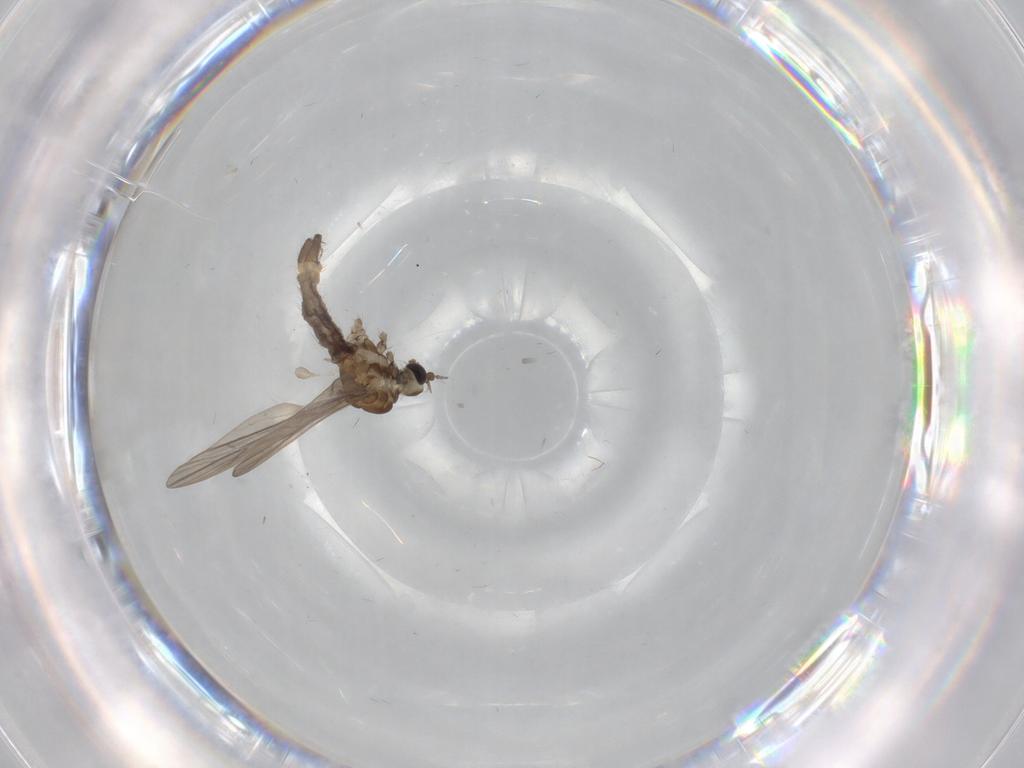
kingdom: Animalia
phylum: Arthropoda
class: Insecta
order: Diptera
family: Limoniidae
